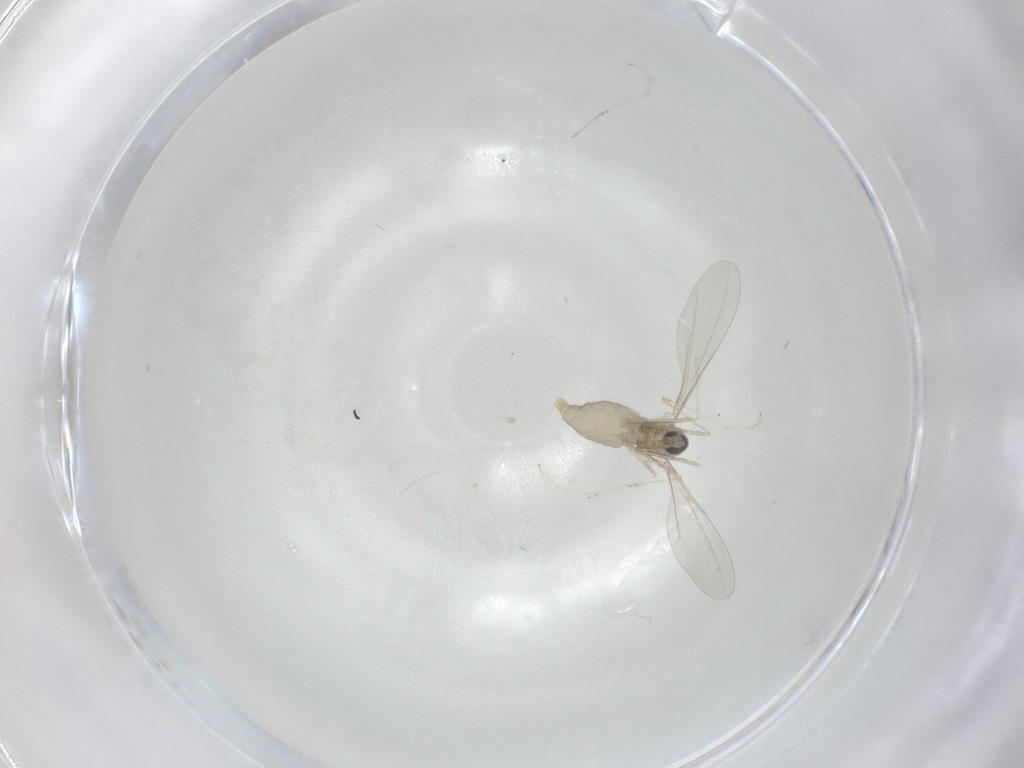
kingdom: Animalia
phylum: Arthropoda
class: Insecta
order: Diptera
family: Cecidomyiidae
